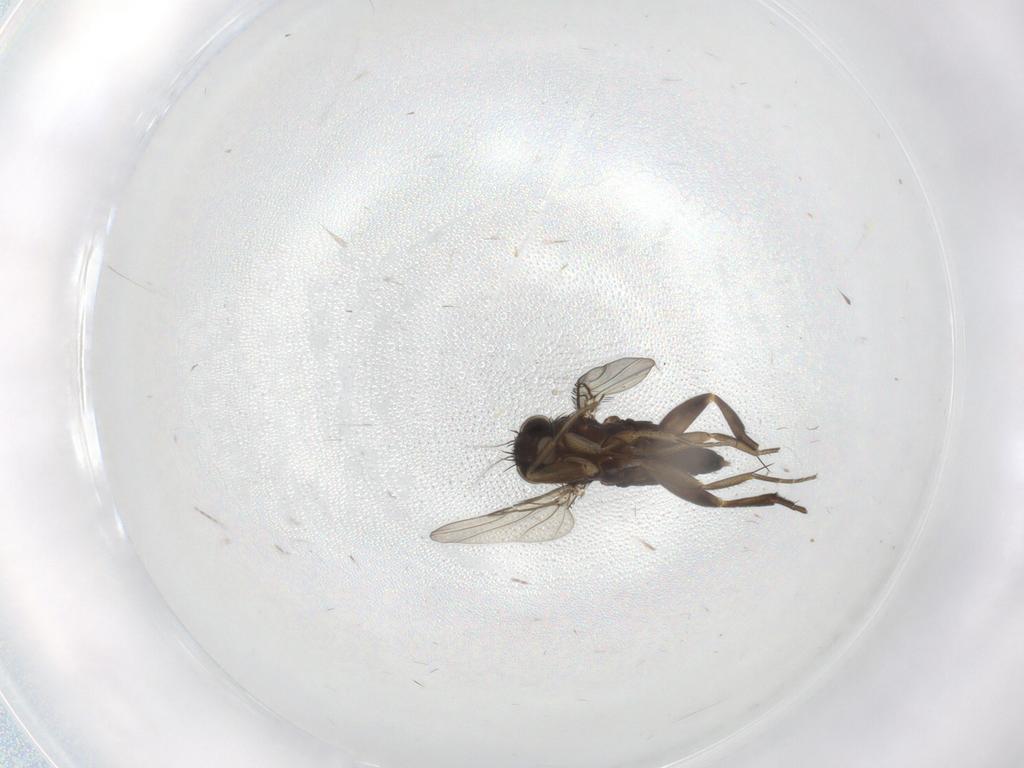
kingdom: Animalia
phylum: Arthropoda
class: Insecta
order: Diptera
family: Phoridae
